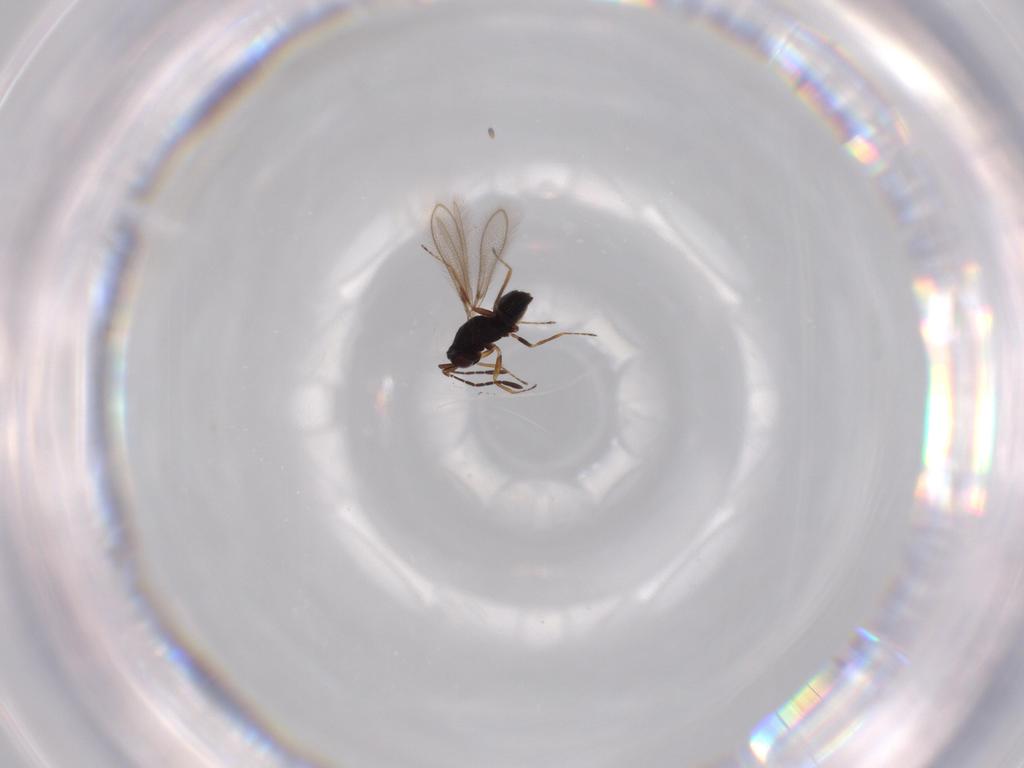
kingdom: Animalia
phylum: Arthropoda
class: Insecta
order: Hymenoptera
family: Platygastridae
